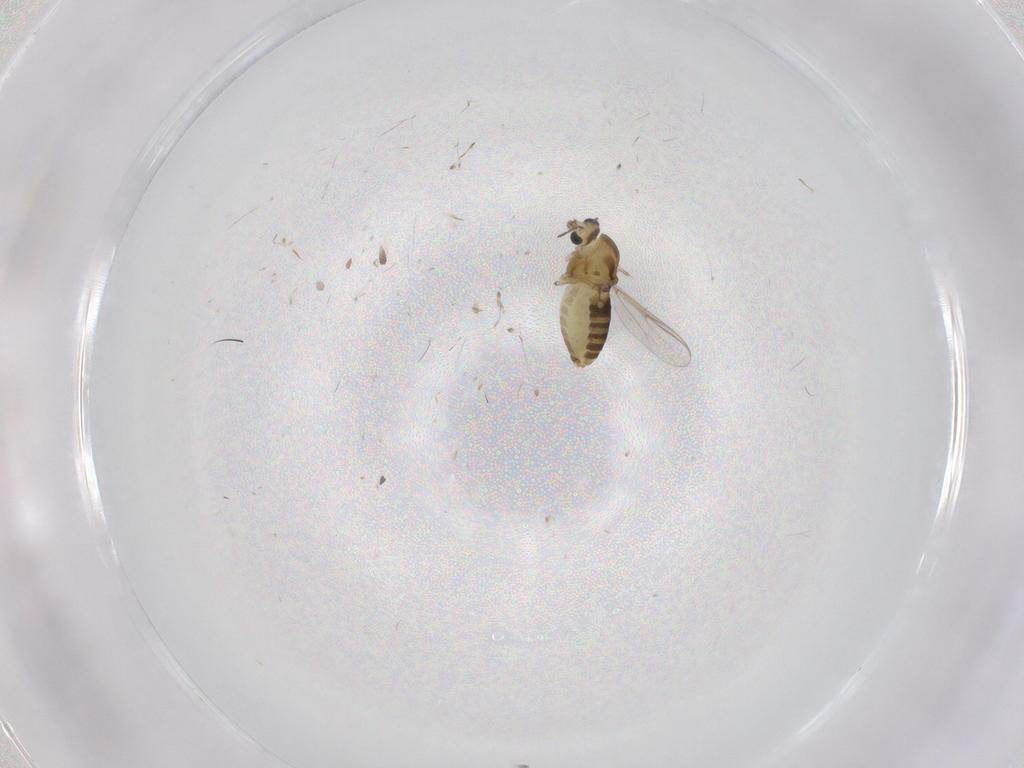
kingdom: Animalia
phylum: Arthropoda
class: Insecta
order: Diptera
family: Chironomidae
